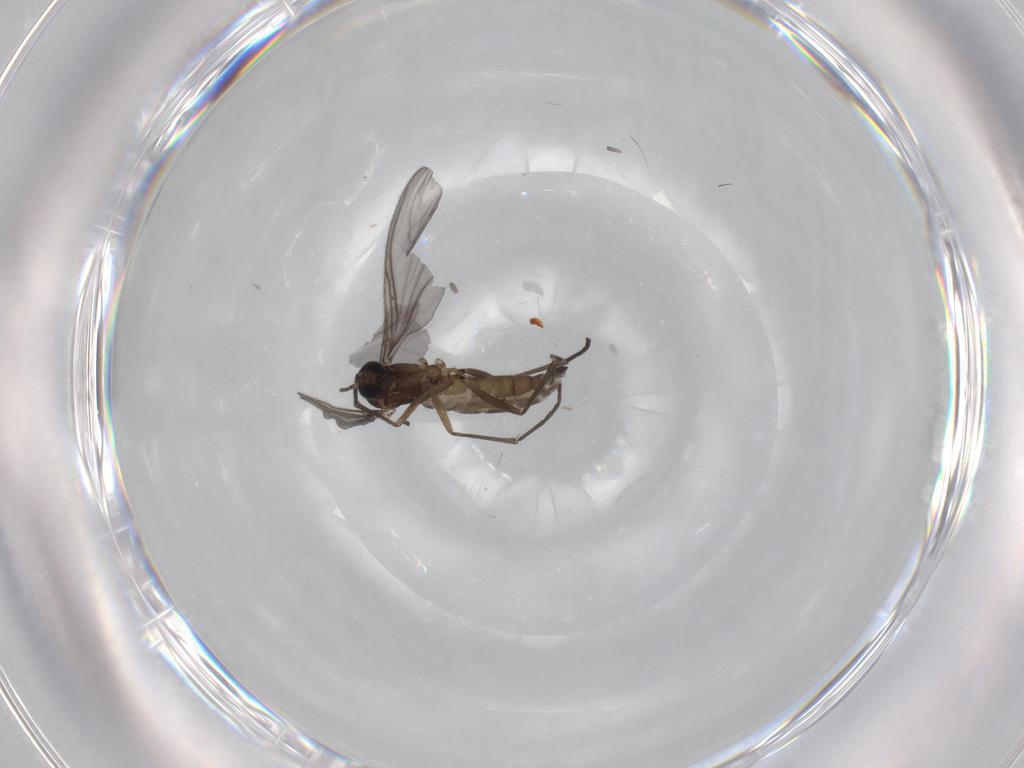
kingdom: Animalia
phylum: Arthropoda
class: Insecta
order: Diptera
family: Sciaridae
